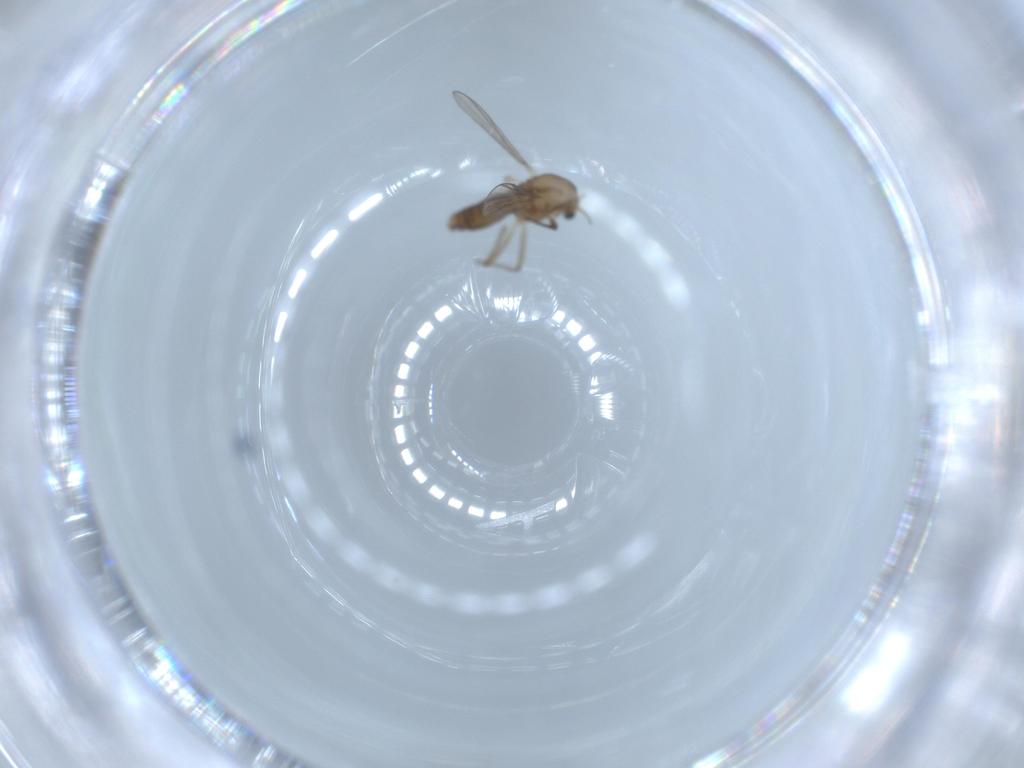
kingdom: Animalia
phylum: Arthropoda
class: Insecta
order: Diptera
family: Chironomidae
